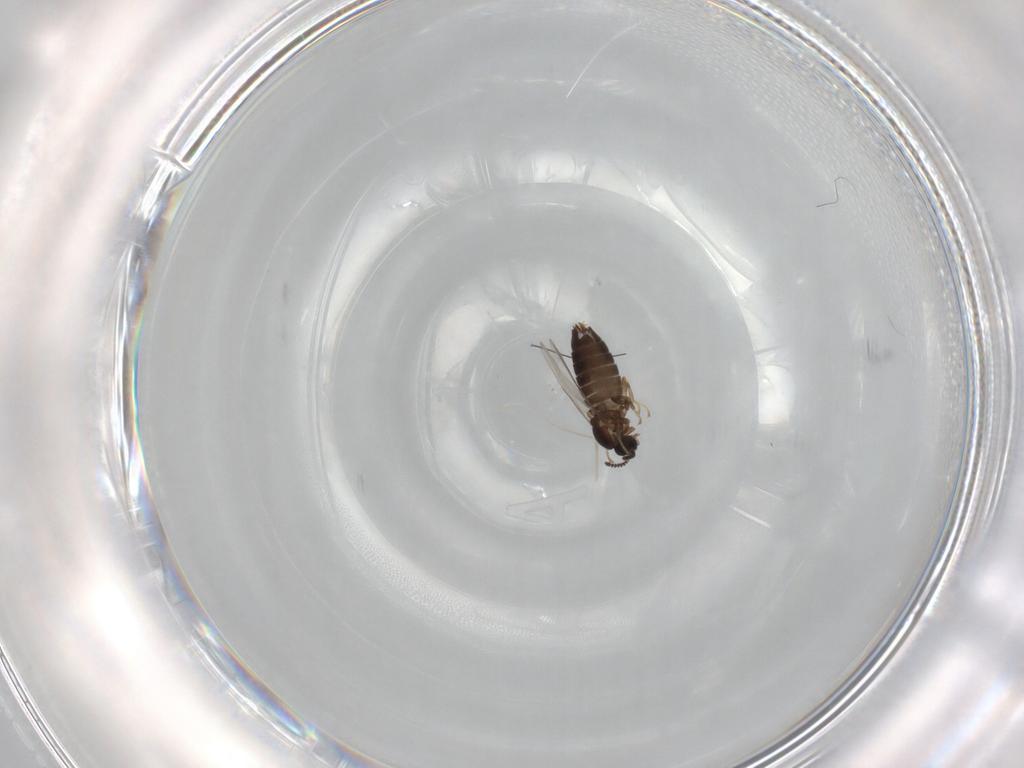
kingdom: Animalia
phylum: Arthropoda
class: Insecta
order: Diptera
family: Scatopsidae
